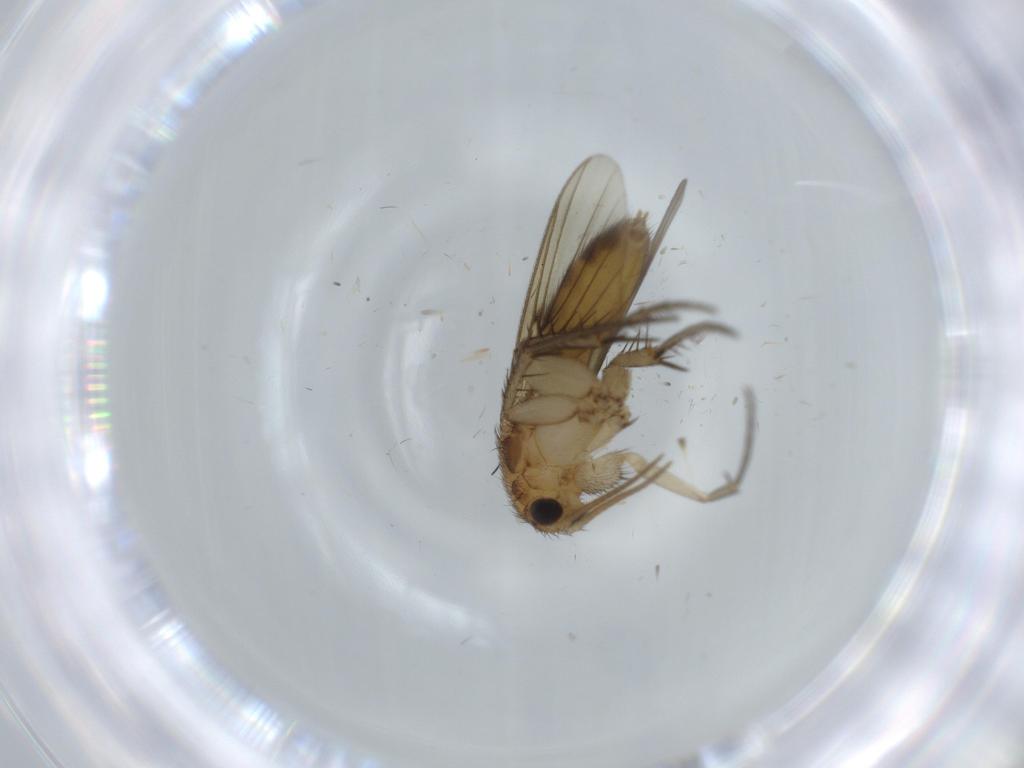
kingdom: Animalia
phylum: Arthropoda
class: Insecta
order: Diptera
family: Mycetophilidae
